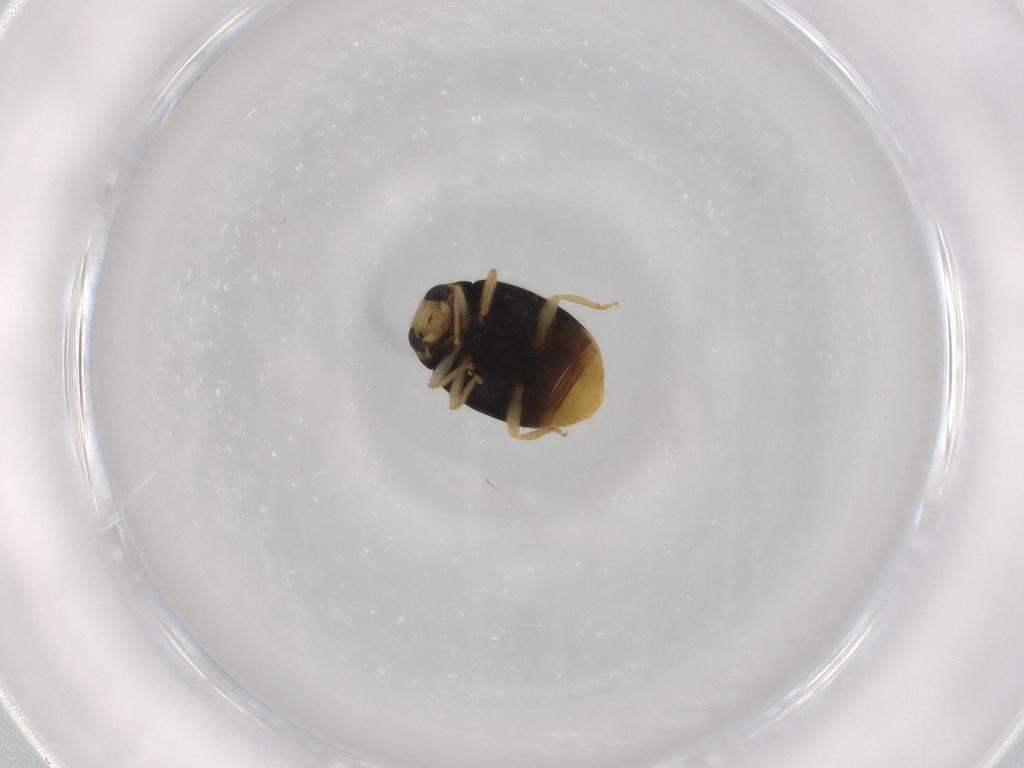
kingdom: Animalia
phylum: Arthropoda
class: Insecta
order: Coleoptera
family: Coccinellidae
